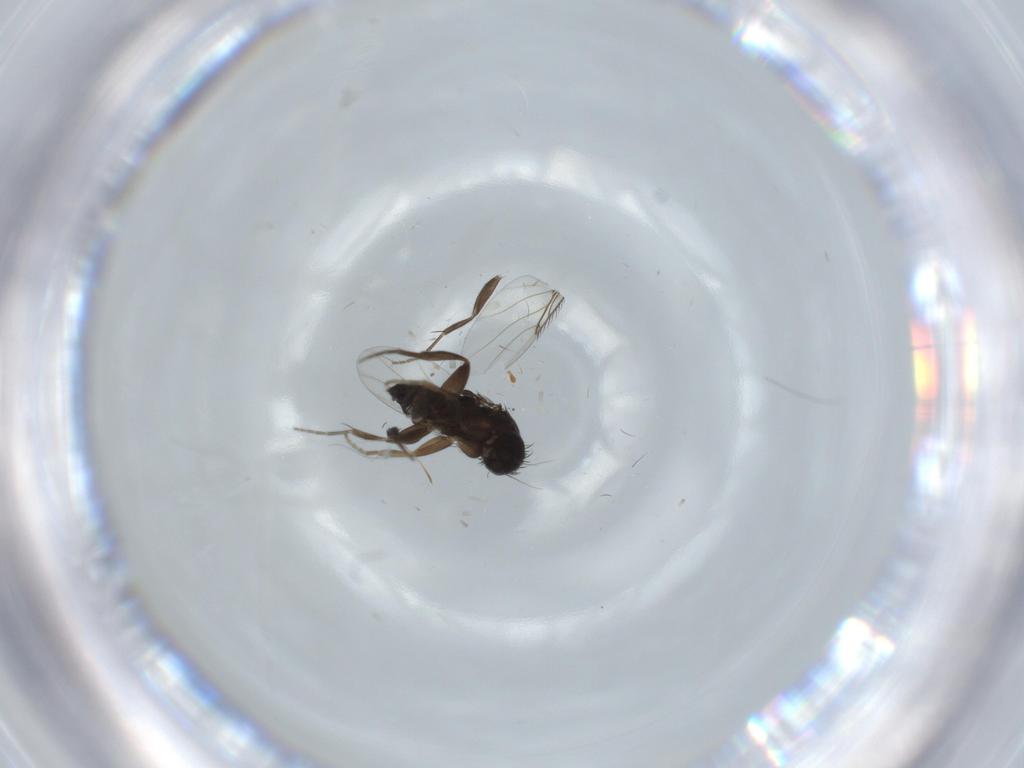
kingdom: Animalia
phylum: Arthropoda
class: Insecta
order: Diptera
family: Phoridae
